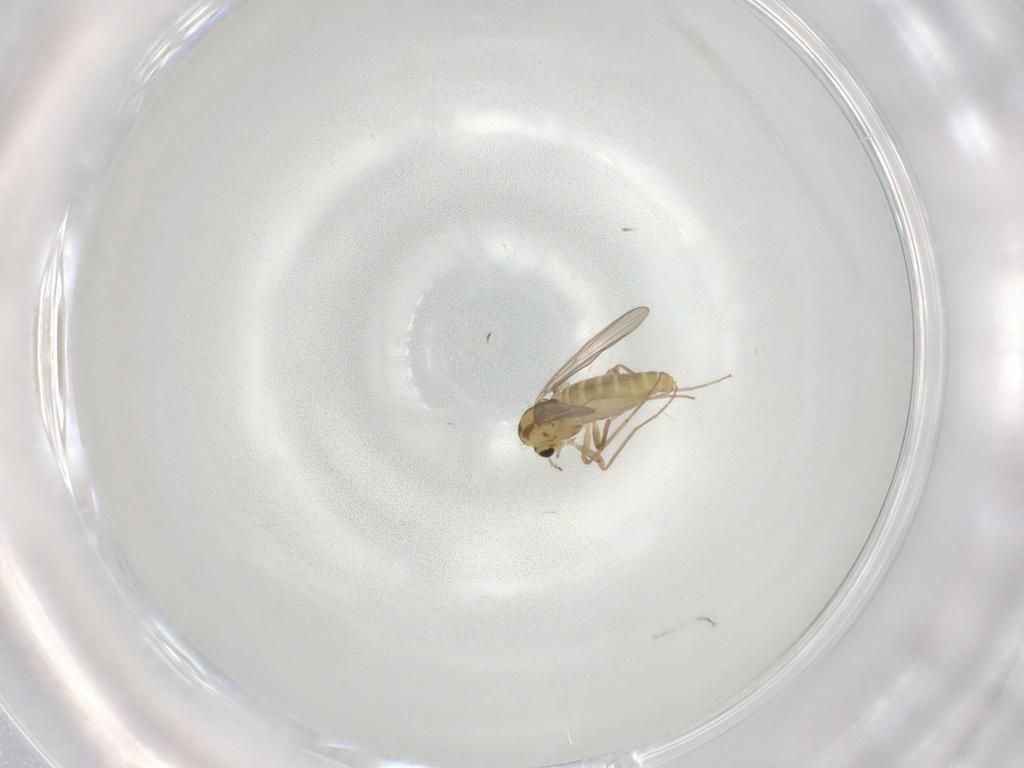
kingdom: Animalia
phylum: Arthropoda
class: Insecta
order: Diptera
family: Chironomidae
